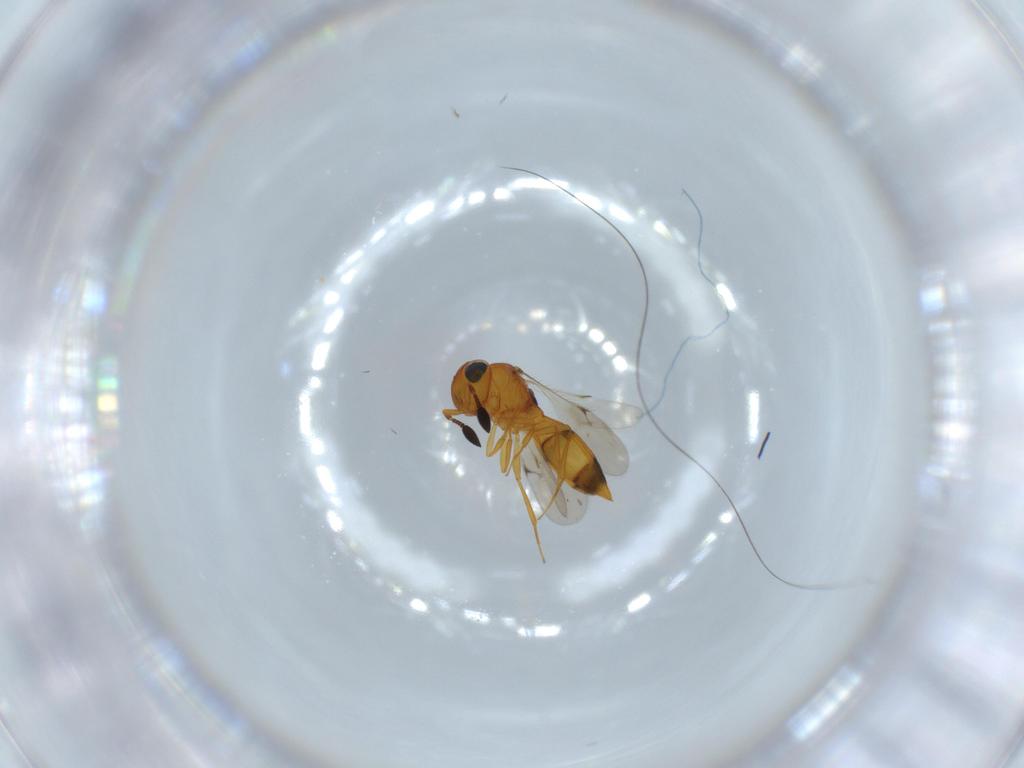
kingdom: Animalia
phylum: Arthropoda
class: Insecta
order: Hymenoptera
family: Scelionidae
